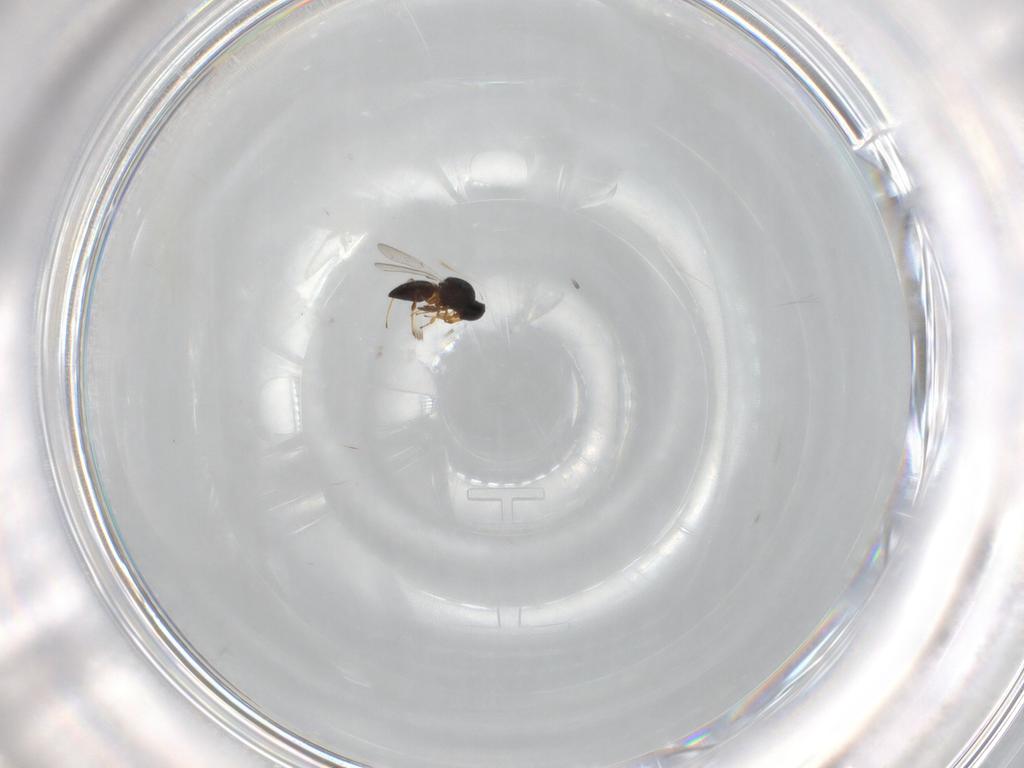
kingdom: Animalia
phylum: Arthropoda
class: Insecta
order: Hymenoptera
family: Platygastridae
